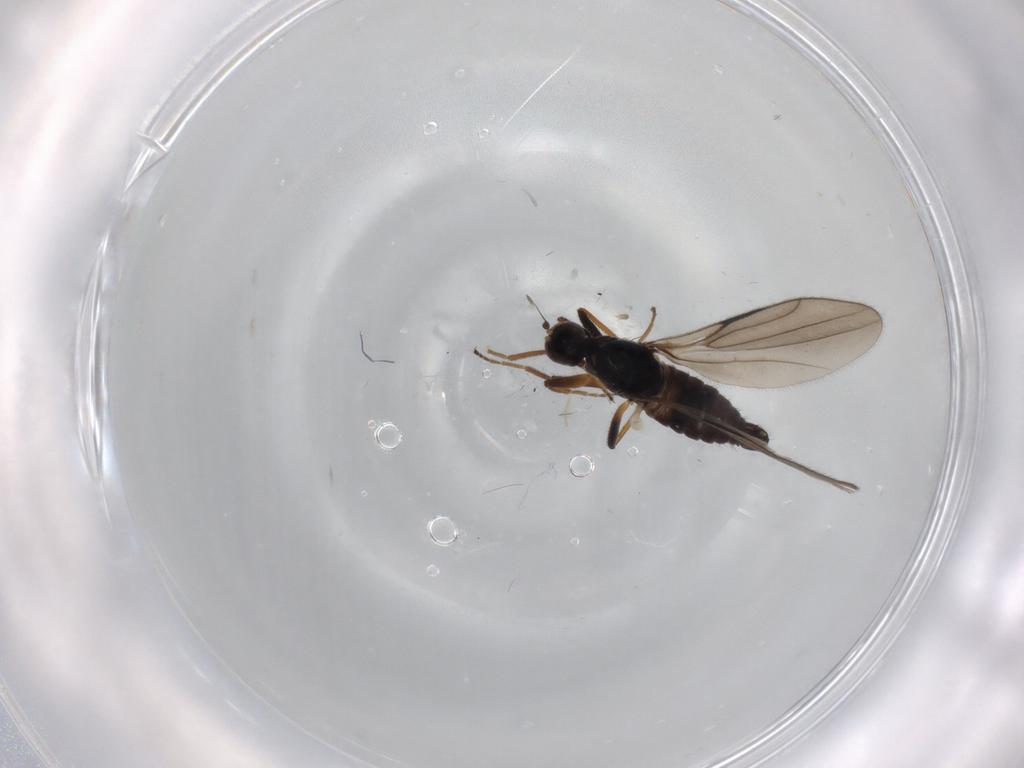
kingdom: Animalia
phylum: Arthropoda
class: Insecta
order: Diptera
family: Hybotidae
